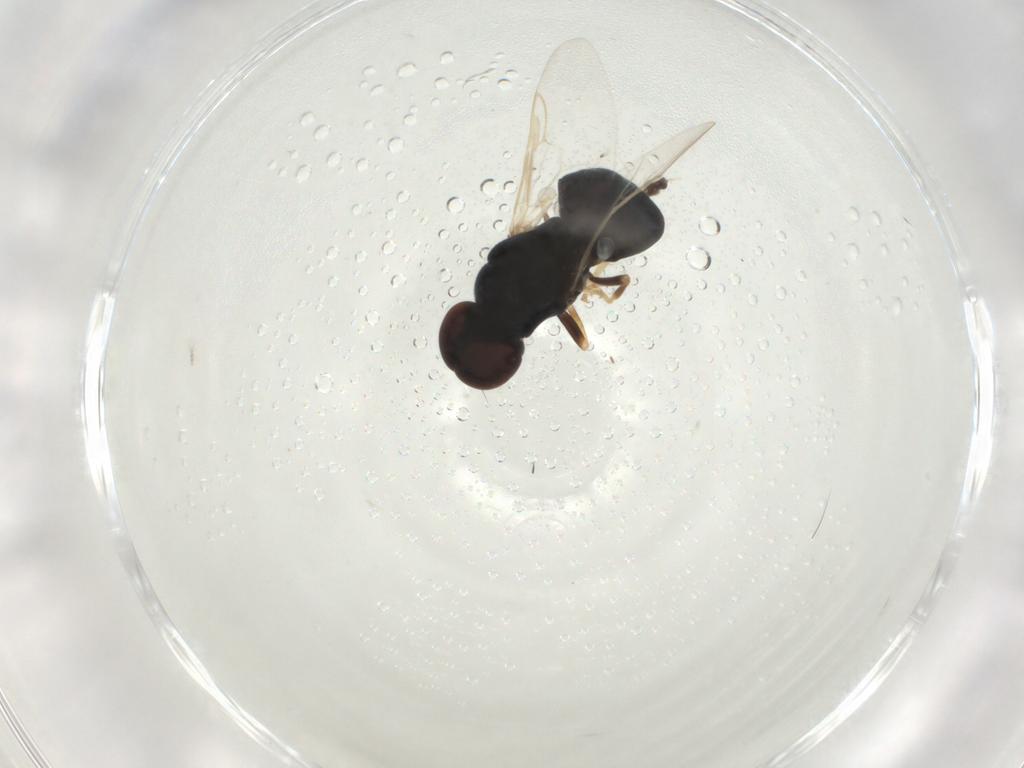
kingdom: Animalia
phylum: Arthropoda
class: Insecta
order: Diptera
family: Stratiomyidae
